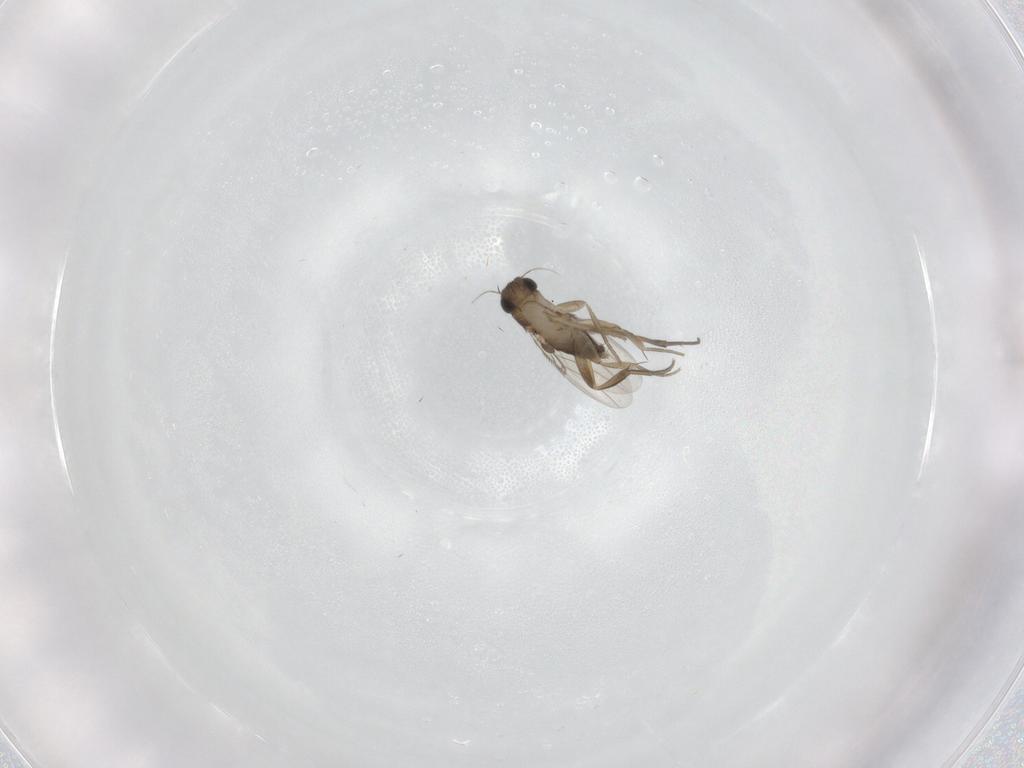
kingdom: Animalia
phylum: Arthropoda
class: Insecta
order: Diptera
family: Phoridae
